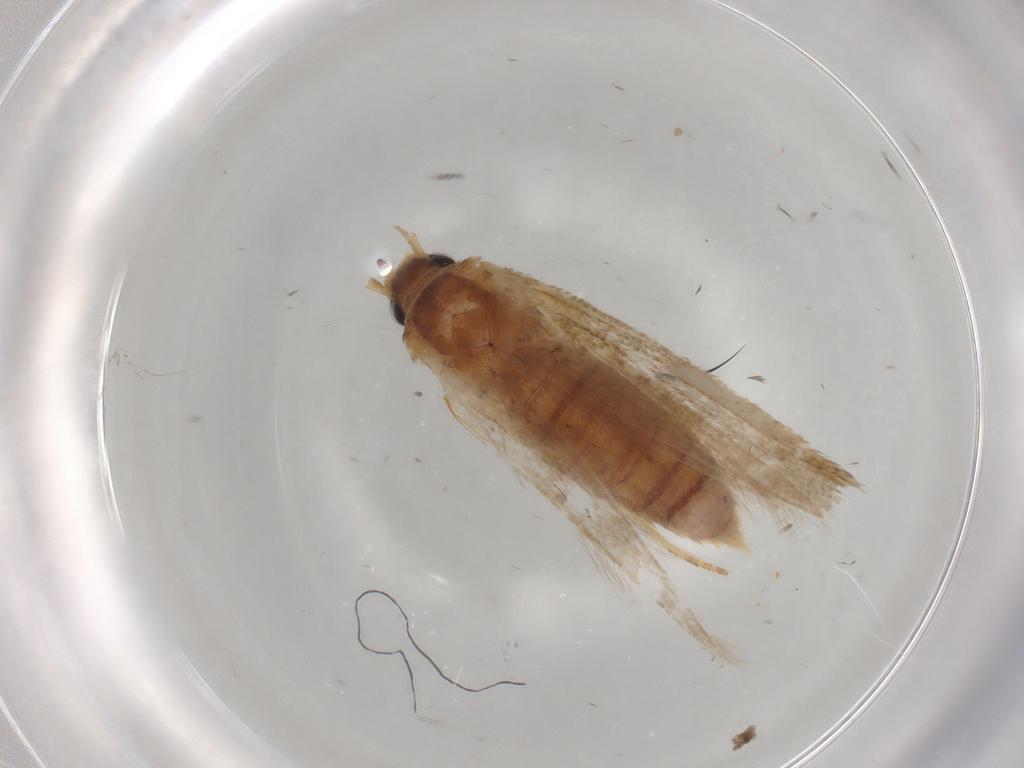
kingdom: Animalia
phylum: Arthropoda
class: Insecta
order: Lepidoptera
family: Blastobasidae
